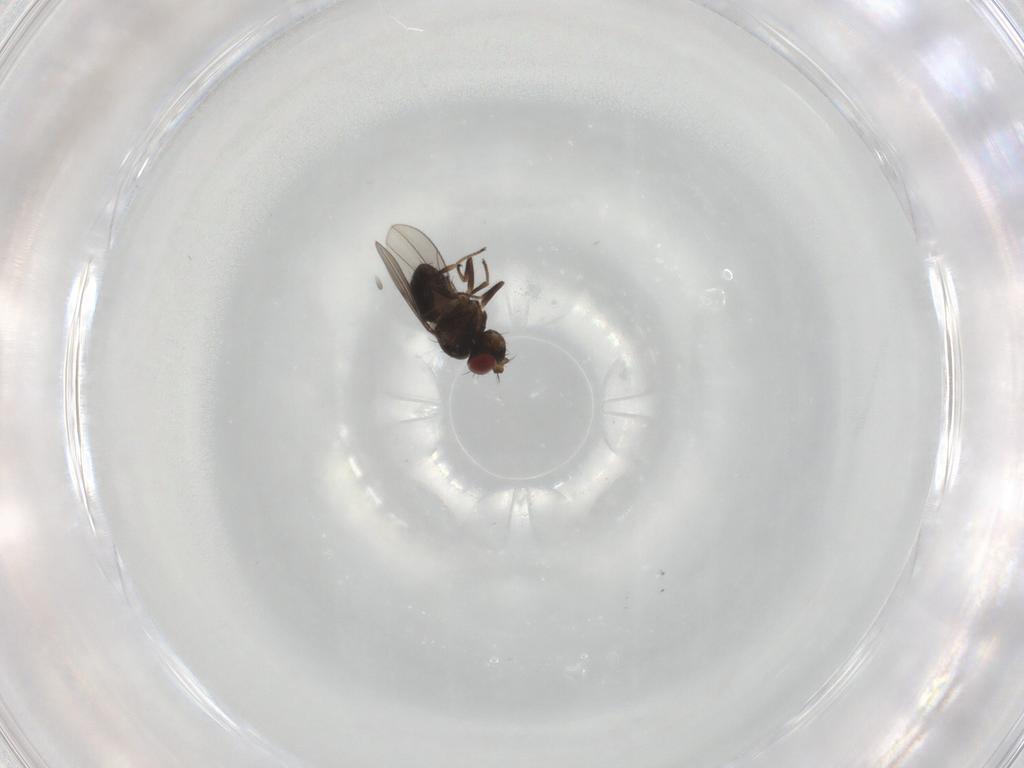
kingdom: Animalia
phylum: Arthropoda
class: Insecta
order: Diptera
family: Ephydridae
